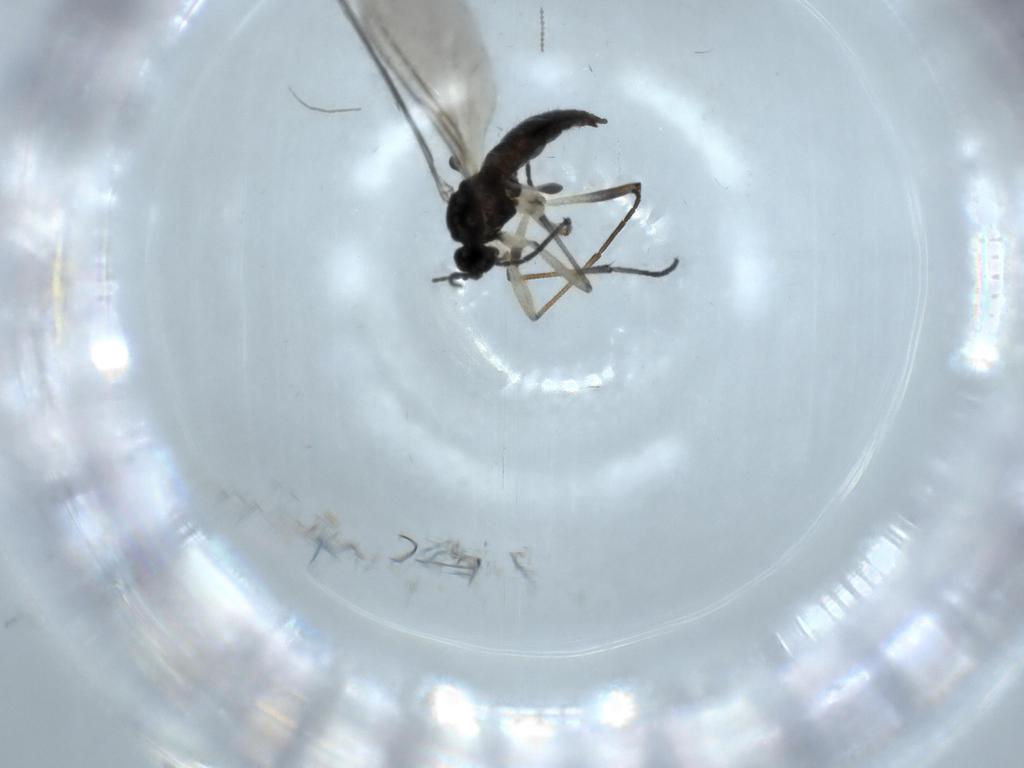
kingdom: Animalia
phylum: Arthropoda
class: Insecta
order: Diptera
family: Sciaridae
